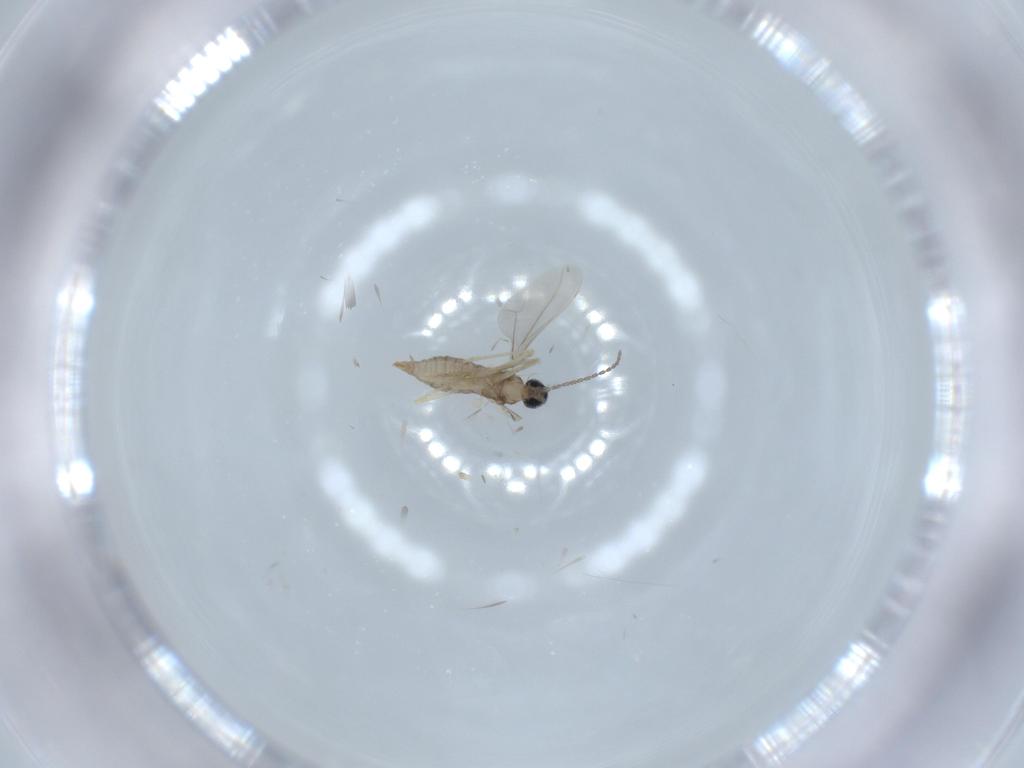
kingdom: Animalia
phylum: Arthropoda
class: Insecta
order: Diptera
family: Cecidomyiidae
